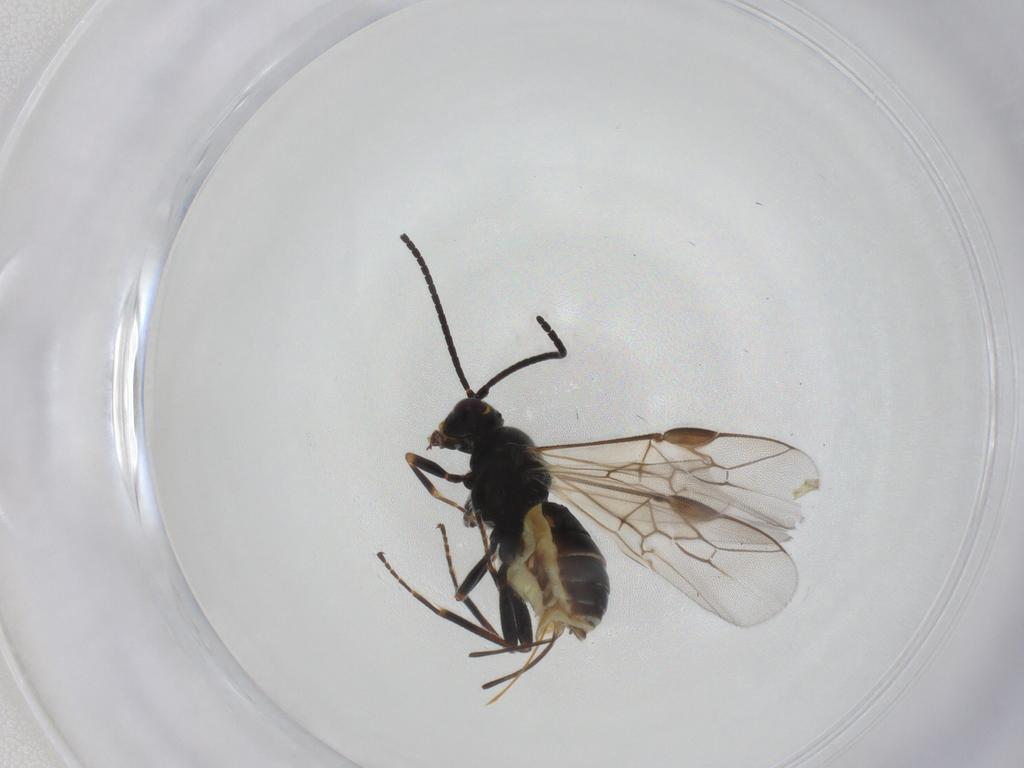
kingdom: Animalia
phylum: Arthropoda
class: Insecta
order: Hymenoptera
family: Braconidae
